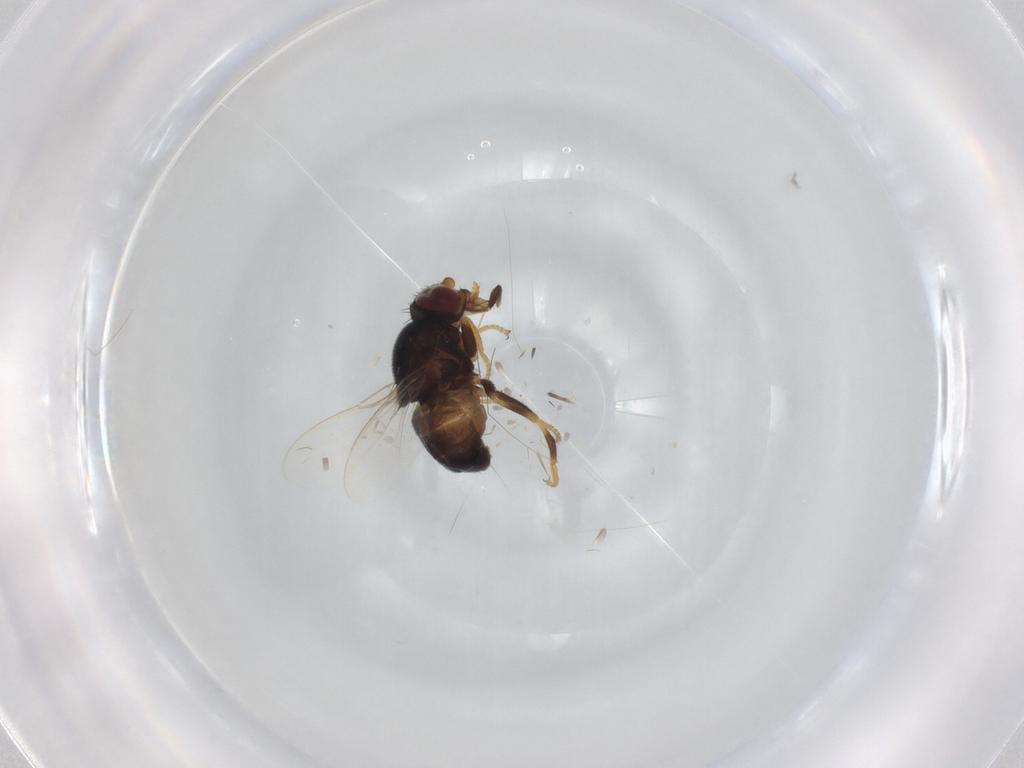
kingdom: Animalia
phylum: Arthropoda
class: Insecta
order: Diptera
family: Chloropidae
